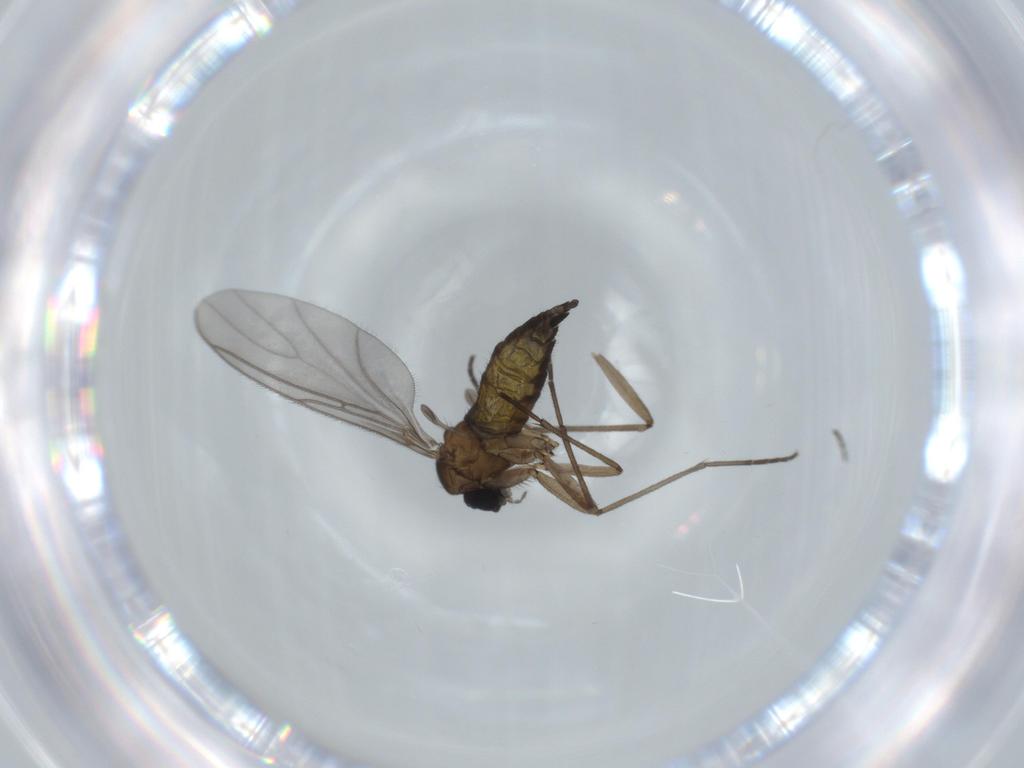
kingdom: Animalia
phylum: Arthropoda
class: Insecta
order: Diptera
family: Sciaridae
